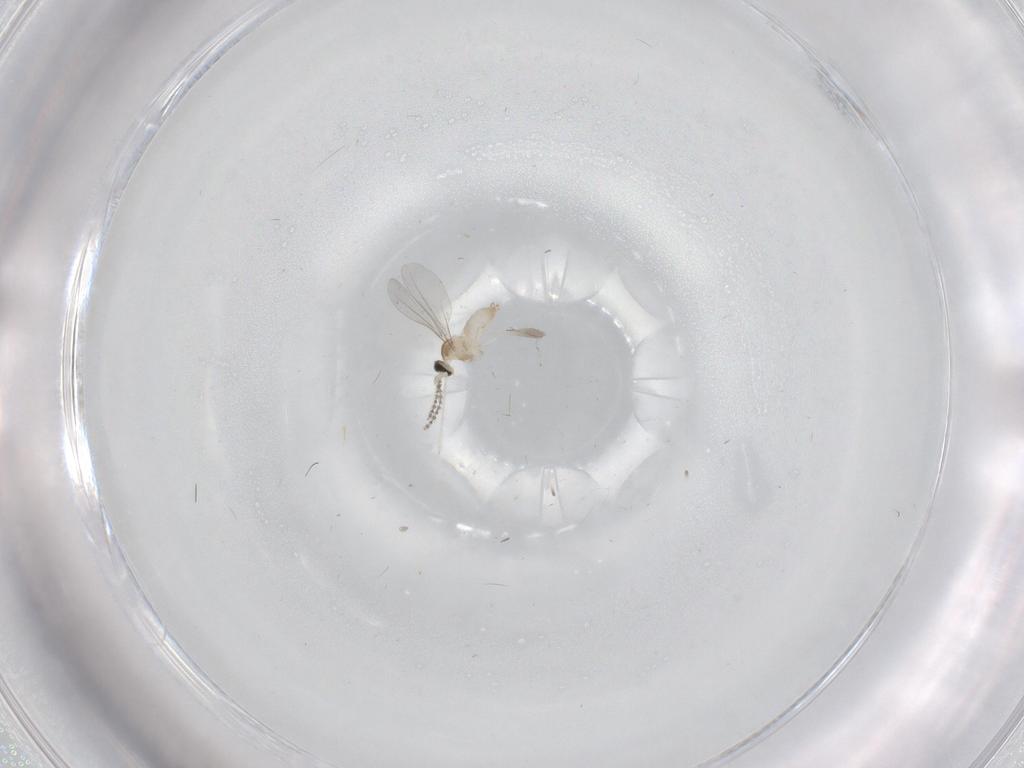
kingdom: Animalia
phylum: Arthropoda
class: Insecta
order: Diptera
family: Cecidomyiidae
